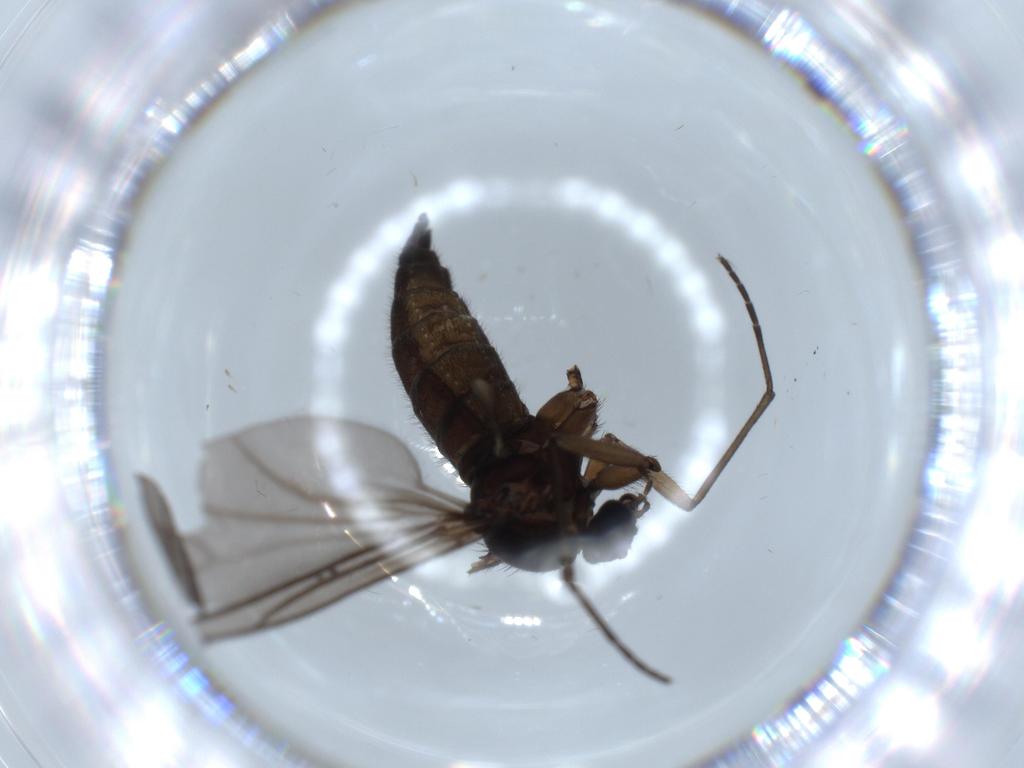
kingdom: Animalia
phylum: Arthropoda
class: Insecta
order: Diptera
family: Sciaridae
